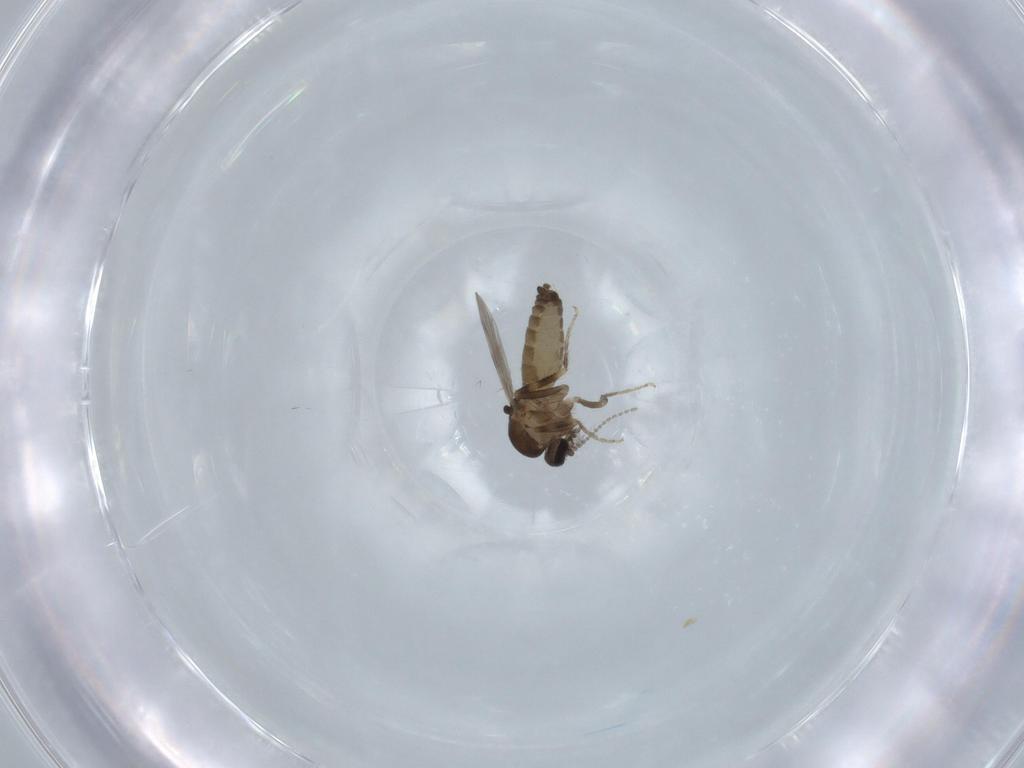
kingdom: Animalia
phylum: Arthropoda
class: Insecta
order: Diptera
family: Ceratopogonidae
